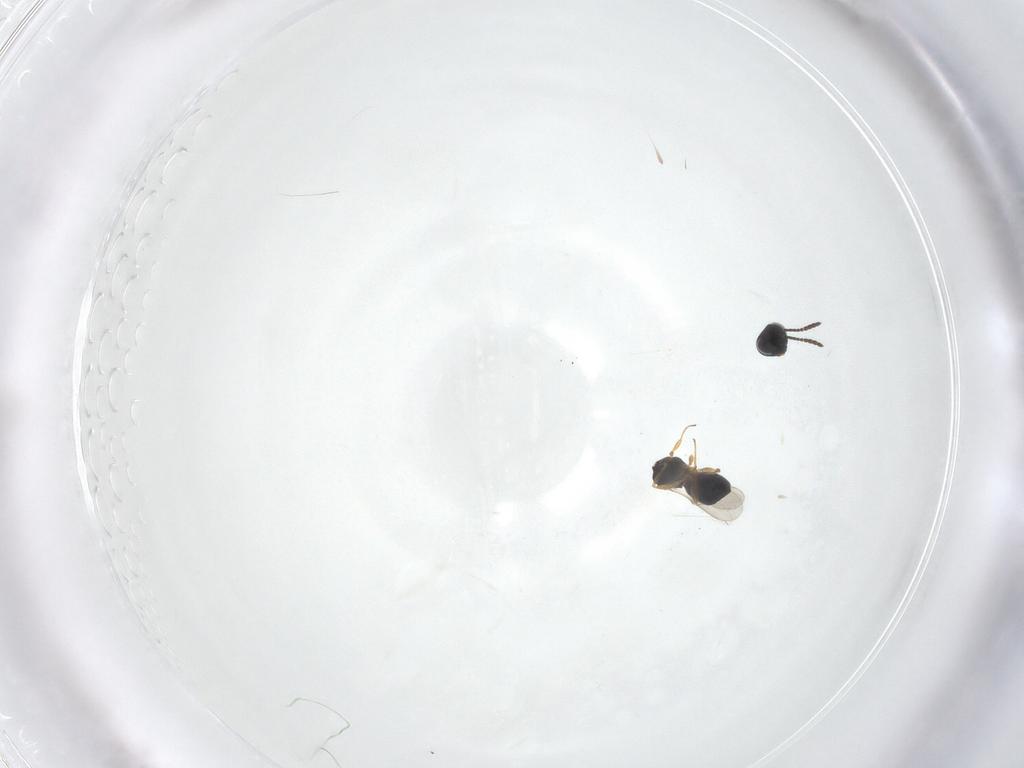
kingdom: Animalia
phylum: Arthropoda
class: Insecta
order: Hymenoptera
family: Scelionidae
